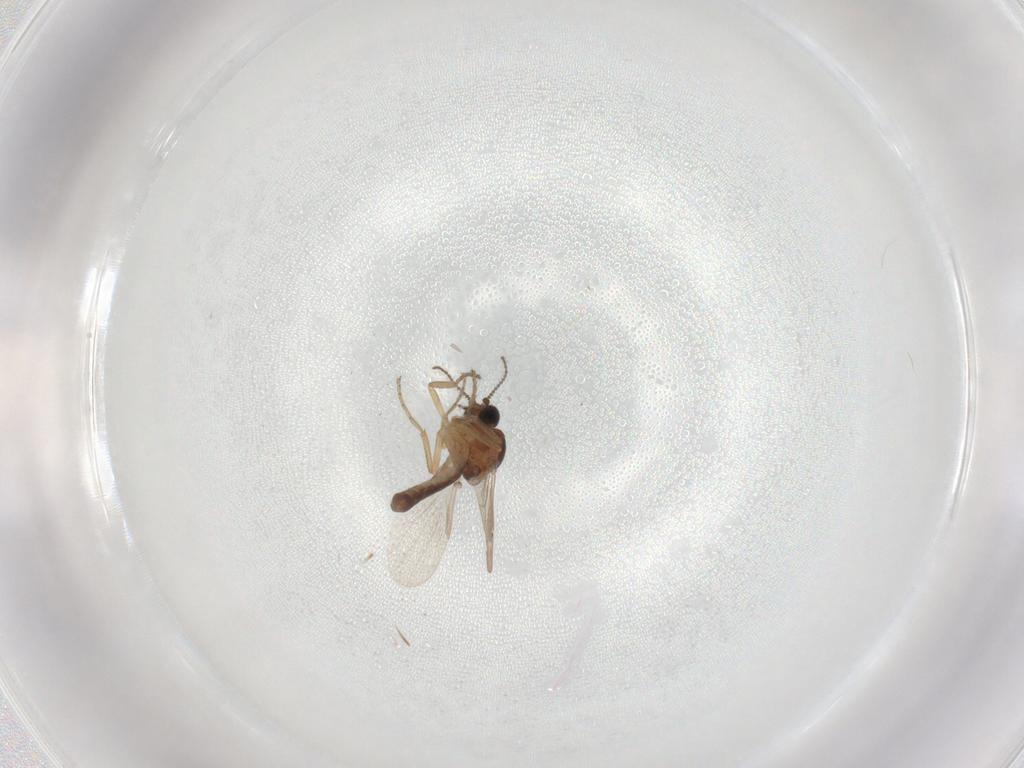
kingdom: Animalia
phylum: Arthropoda
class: Insecta
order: Diptera
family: Ceratopogonidae
